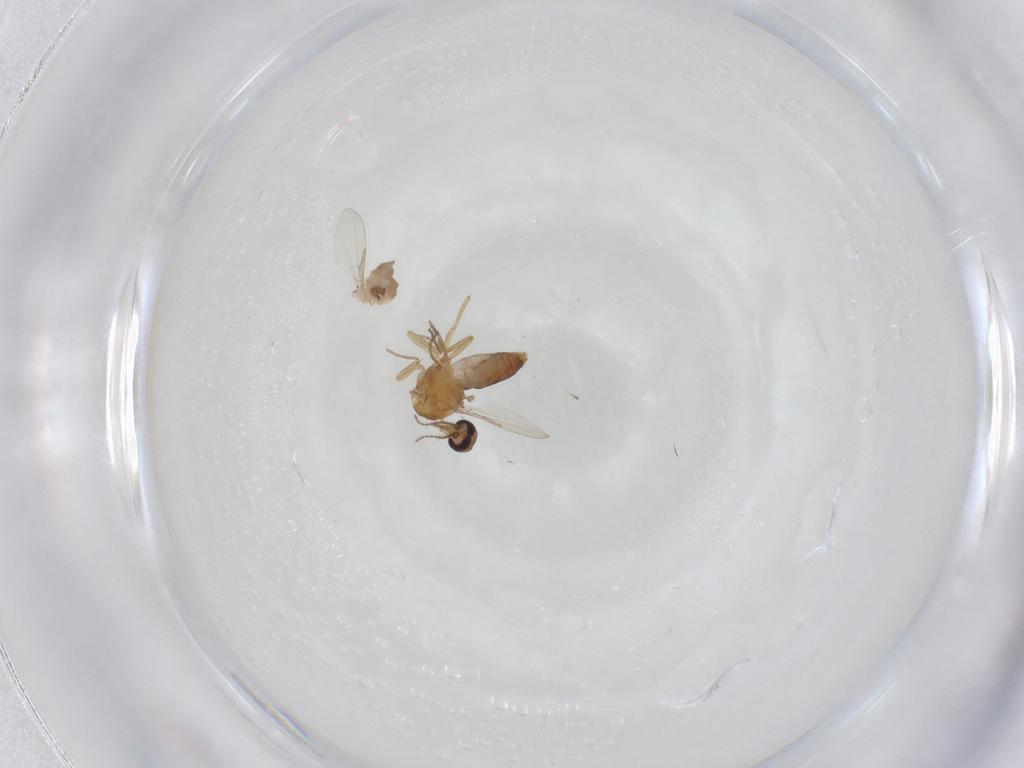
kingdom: Animalia
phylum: Arthropoda
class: Insecta
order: Diptera
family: Ceratopogonidae
